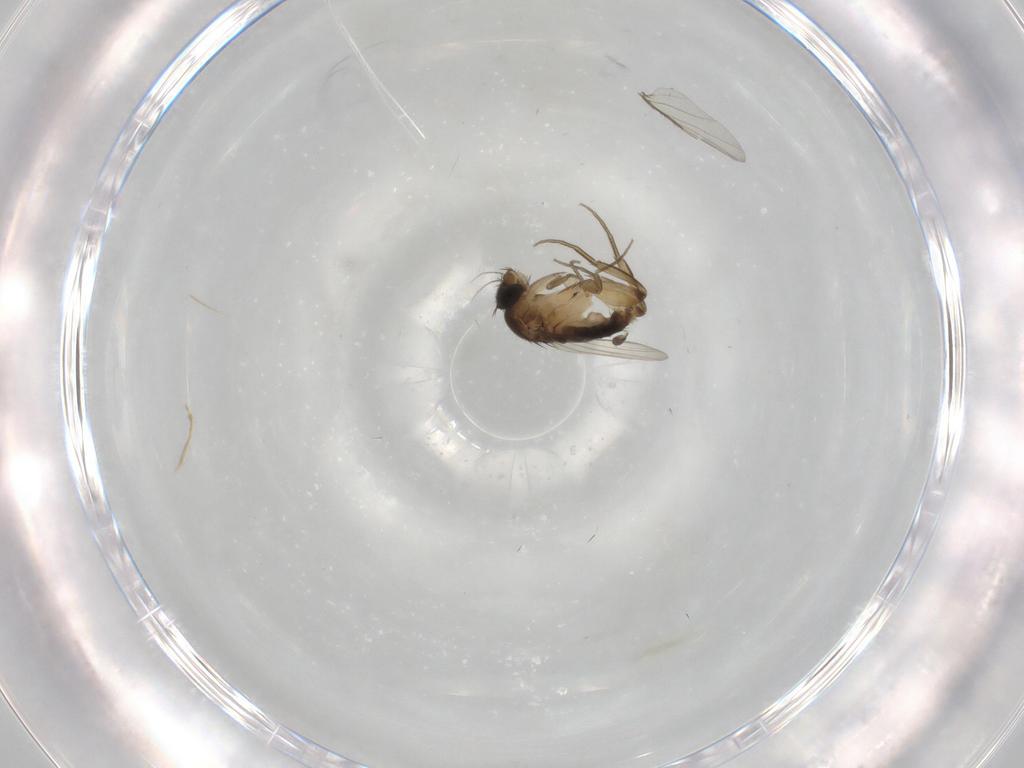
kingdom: Animalia
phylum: Arthropoda
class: Insecta
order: Diptera
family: Phoridae
